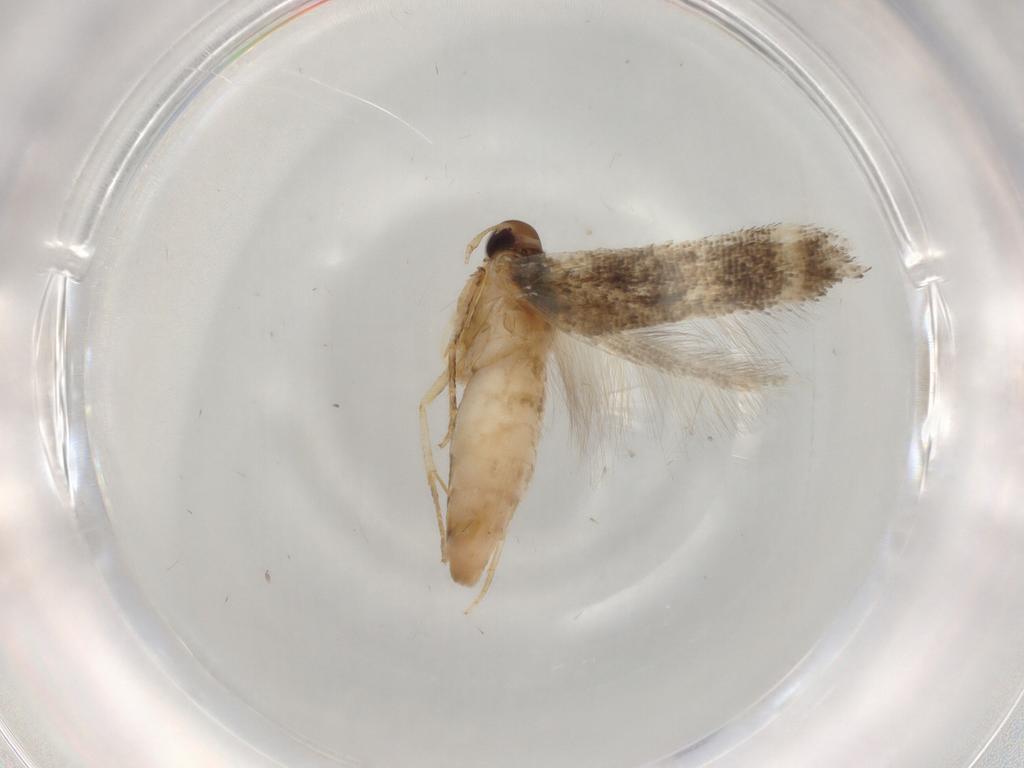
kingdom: Animalia
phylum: Arthropoda
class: Insecta
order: Lepidoptera
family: Cosmopterigidae
